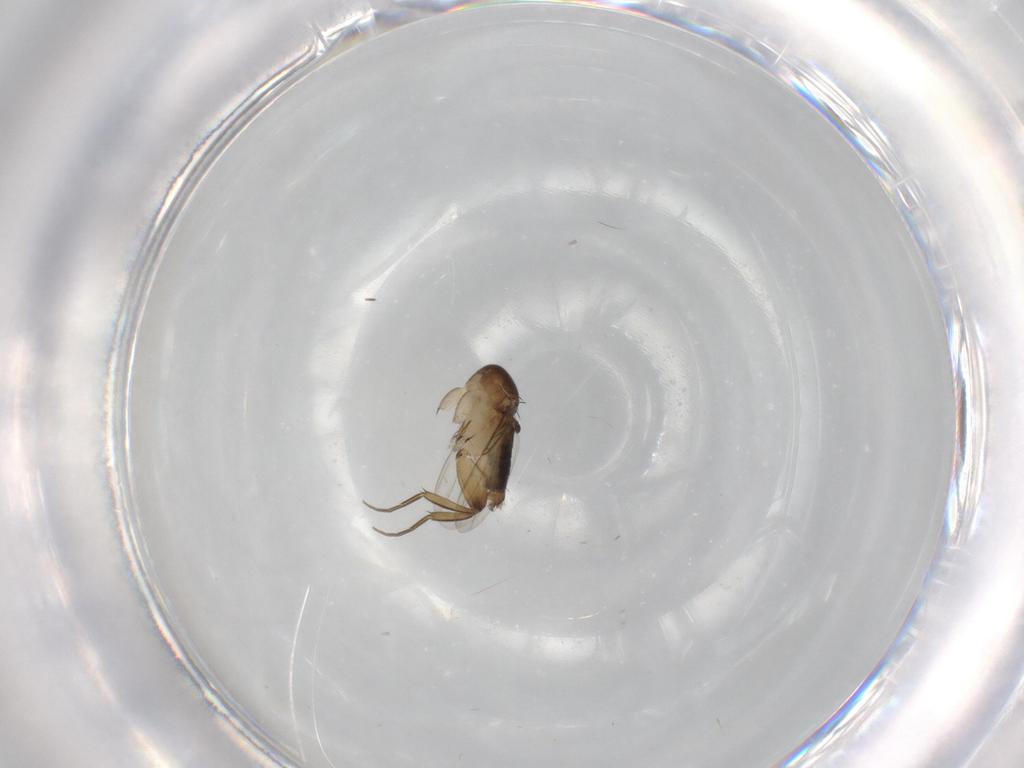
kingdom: Animalia
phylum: Arthropoda
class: Insecta
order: Diptera
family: Phoridae
